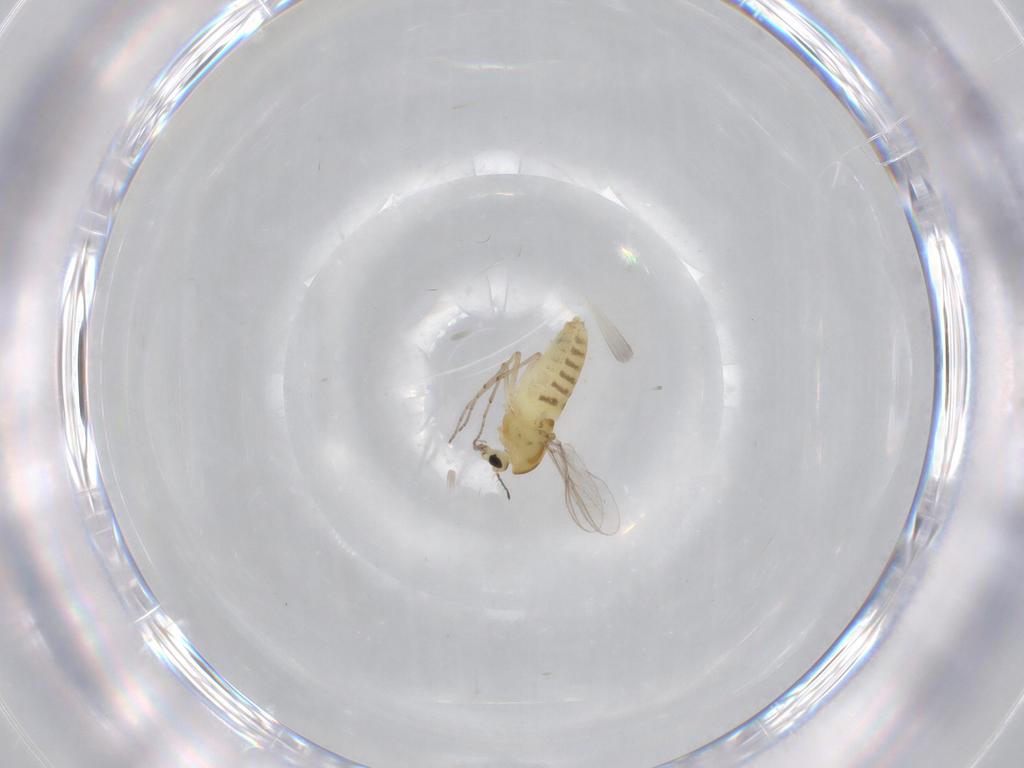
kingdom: Animalia
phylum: Arthropoda
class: Insecta
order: Diptera
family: Chironomidae
